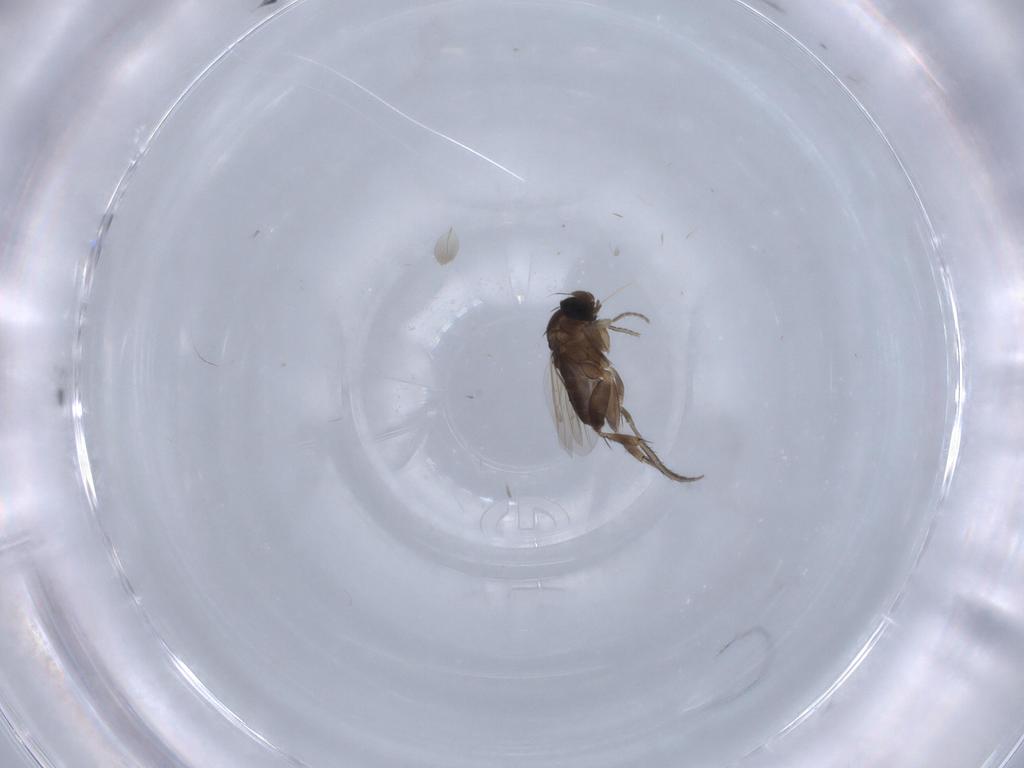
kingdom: Animalia
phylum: Arthropoda
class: Insecta
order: Diptera
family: Phoridae
